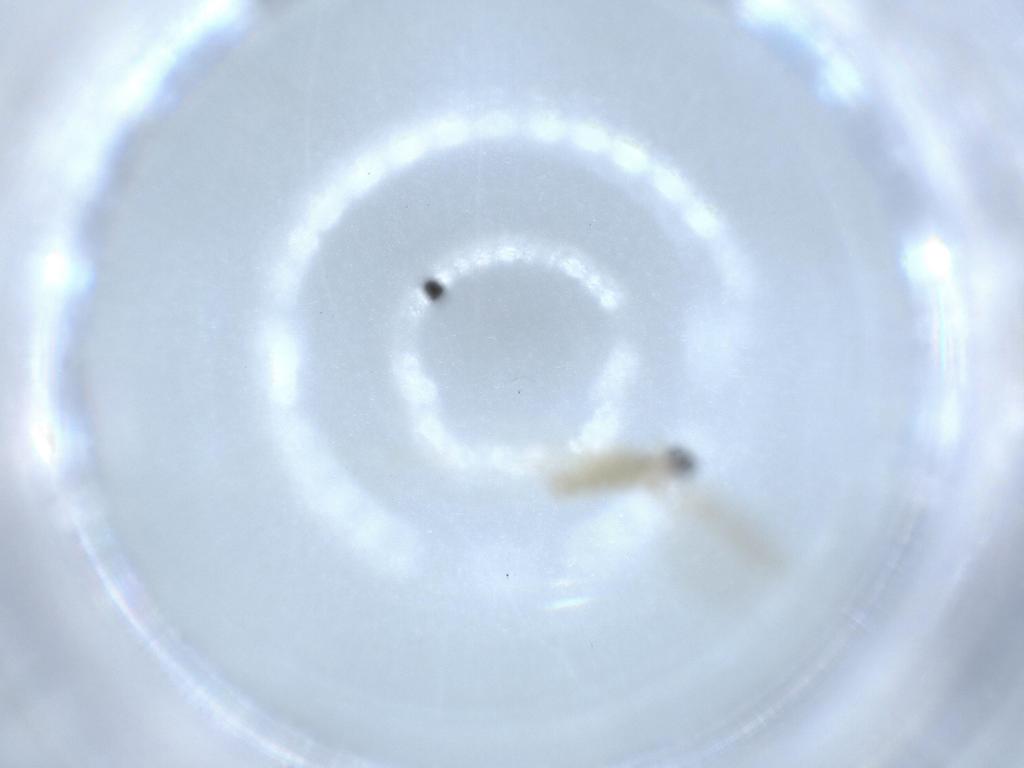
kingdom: Animalia
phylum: Arthropoda
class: Insecta
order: Diptera
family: Cecidomyiidae
